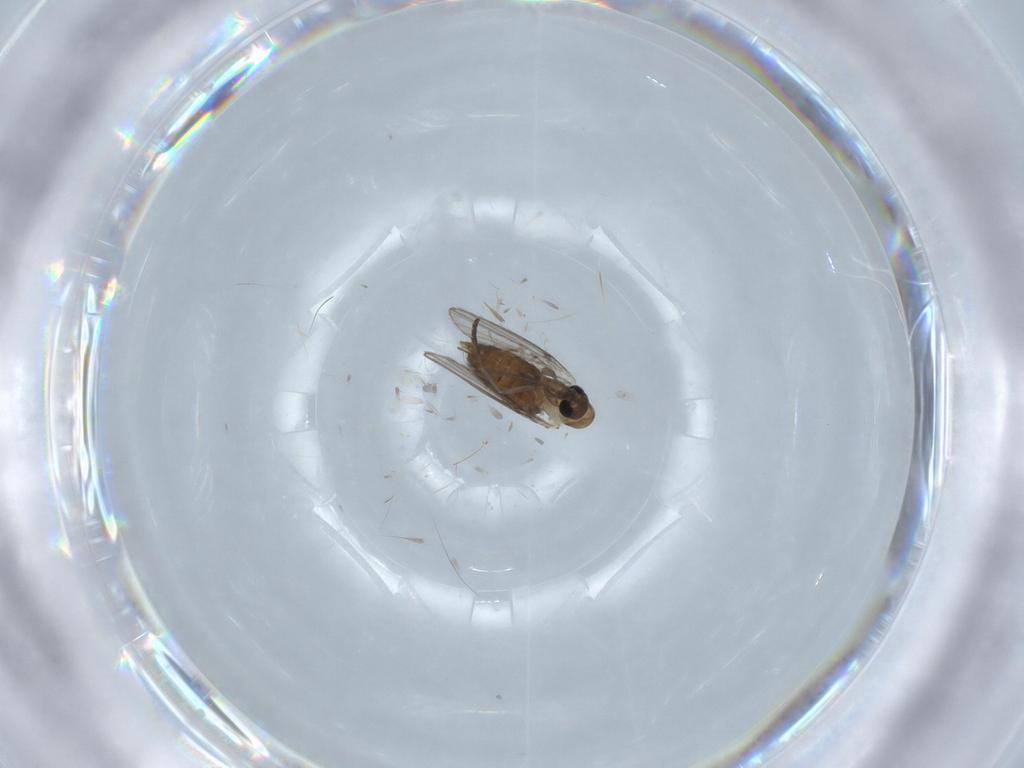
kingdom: Animalia
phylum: Arthropoda
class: Insecta
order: Diptera
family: Psychodidae
